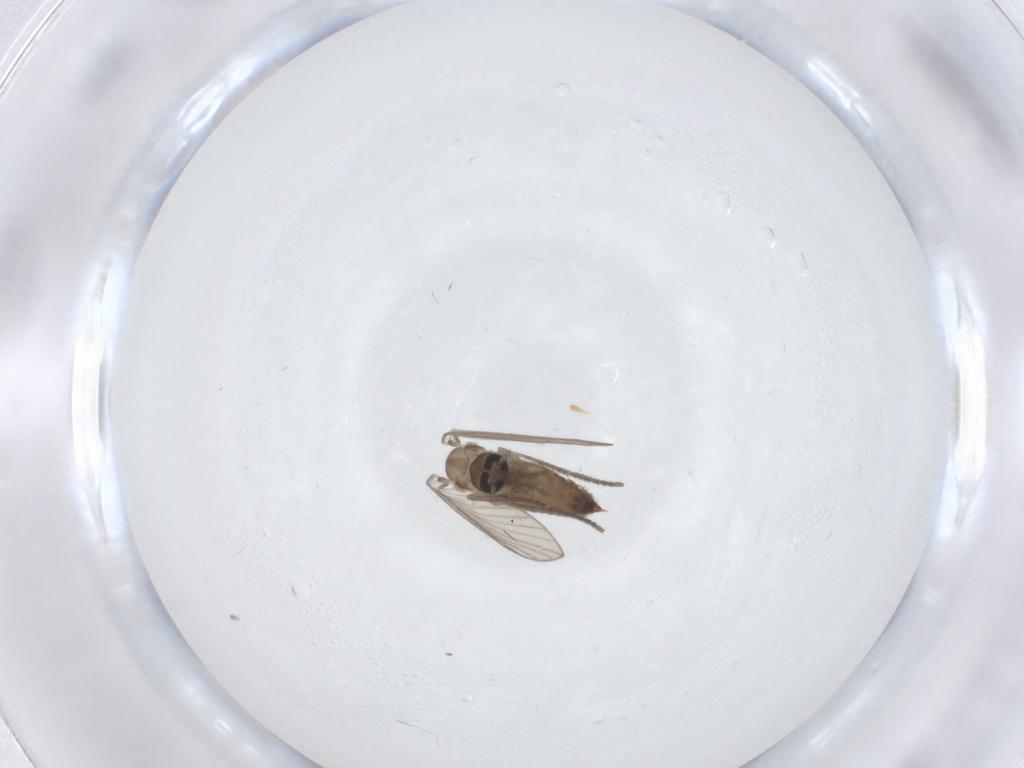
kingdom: Animalia
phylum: Arthropoda
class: Insecta
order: Diptera
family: Psychodidae
